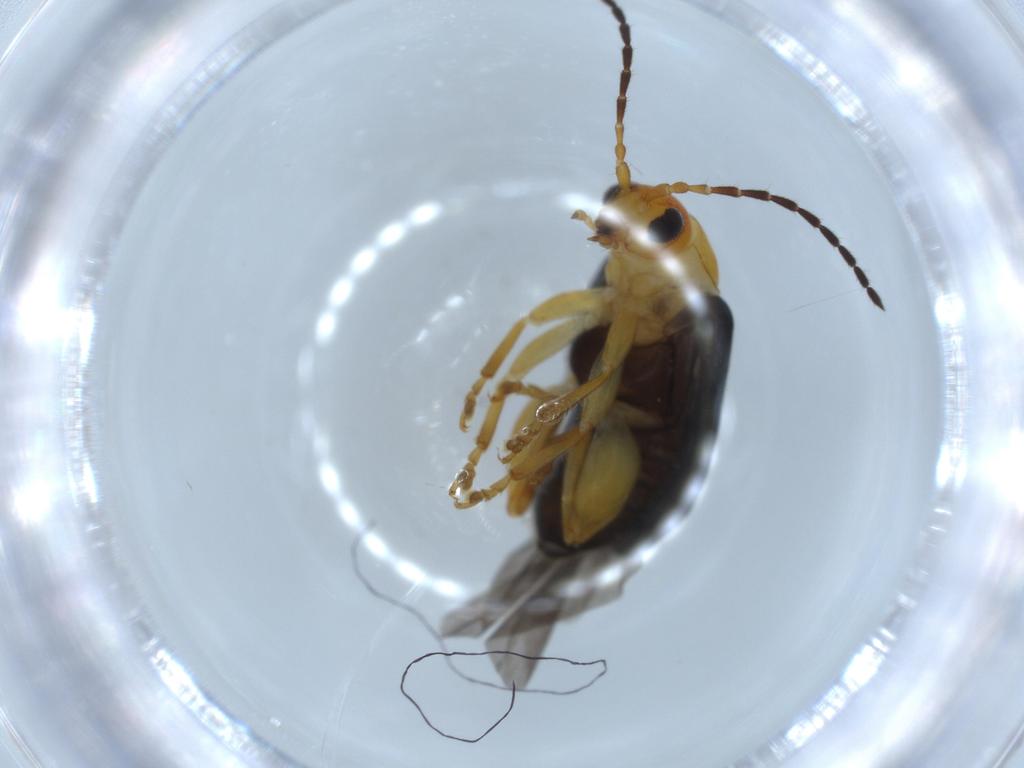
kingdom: Animalia
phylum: Arthropoda
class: Insecta
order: Coleoptera
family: Chrysomelidae
